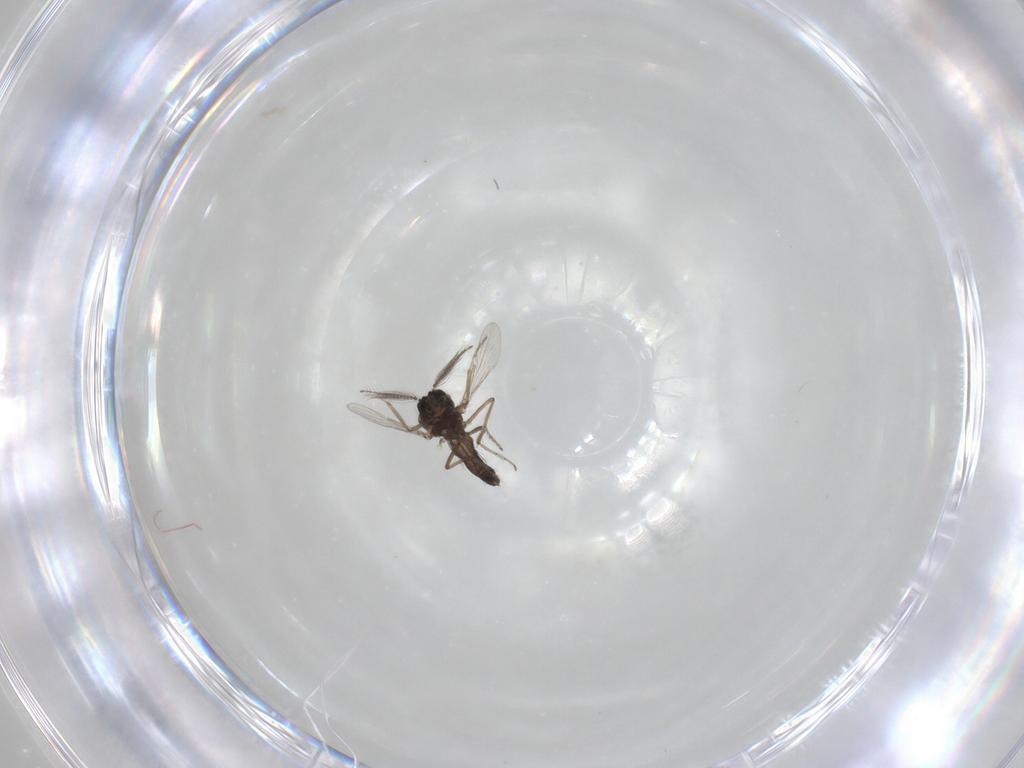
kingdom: Animalia
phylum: Arthropoda
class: Insecta
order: Diptera
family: Ceratopogonidae
